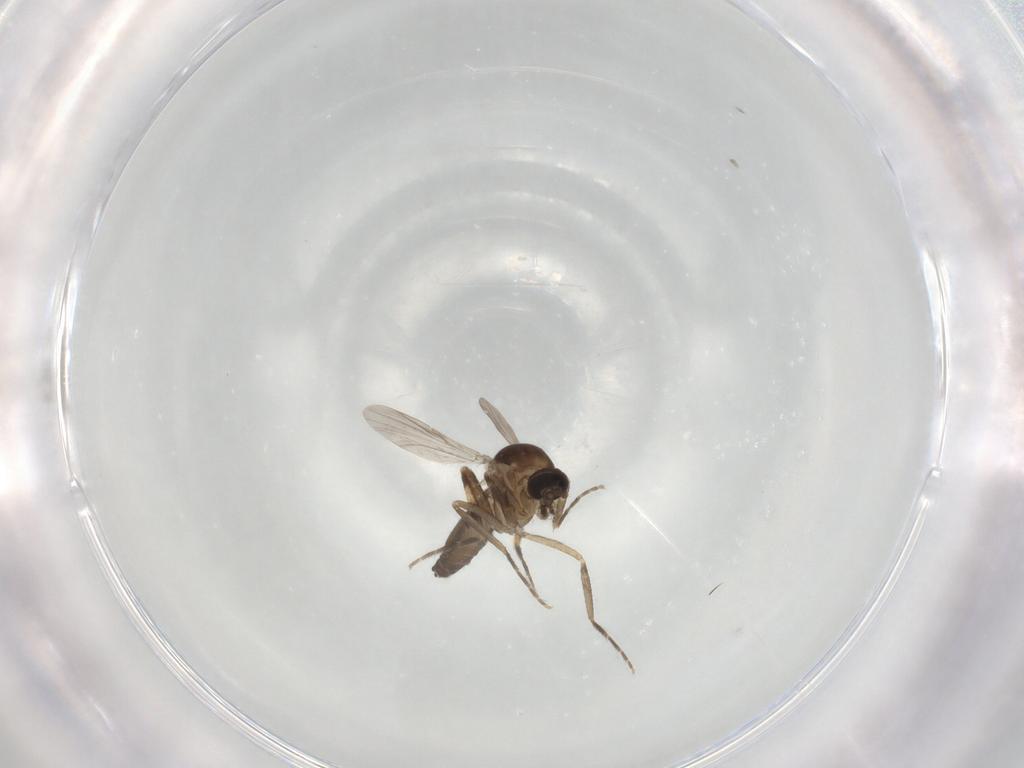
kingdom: Animalia
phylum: Arthropoda
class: Insecta
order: Diptera
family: Ceratopogonidae
